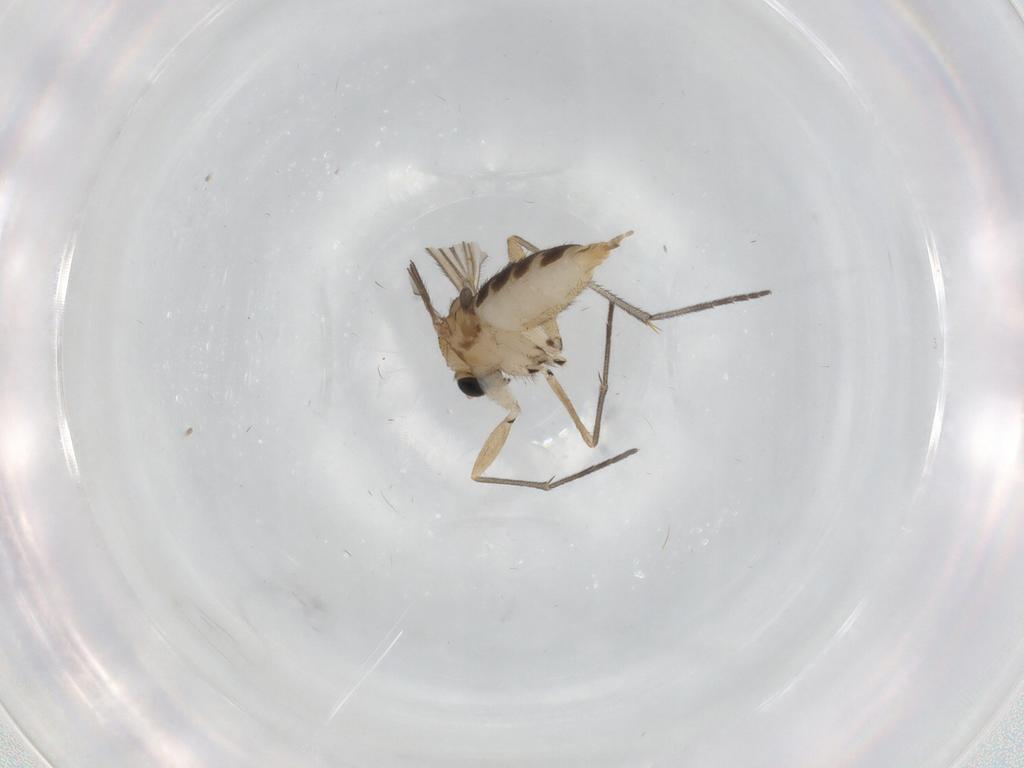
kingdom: Animalia
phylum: Arthropoda
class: Insecta
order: Diptera
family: Sciaridae
